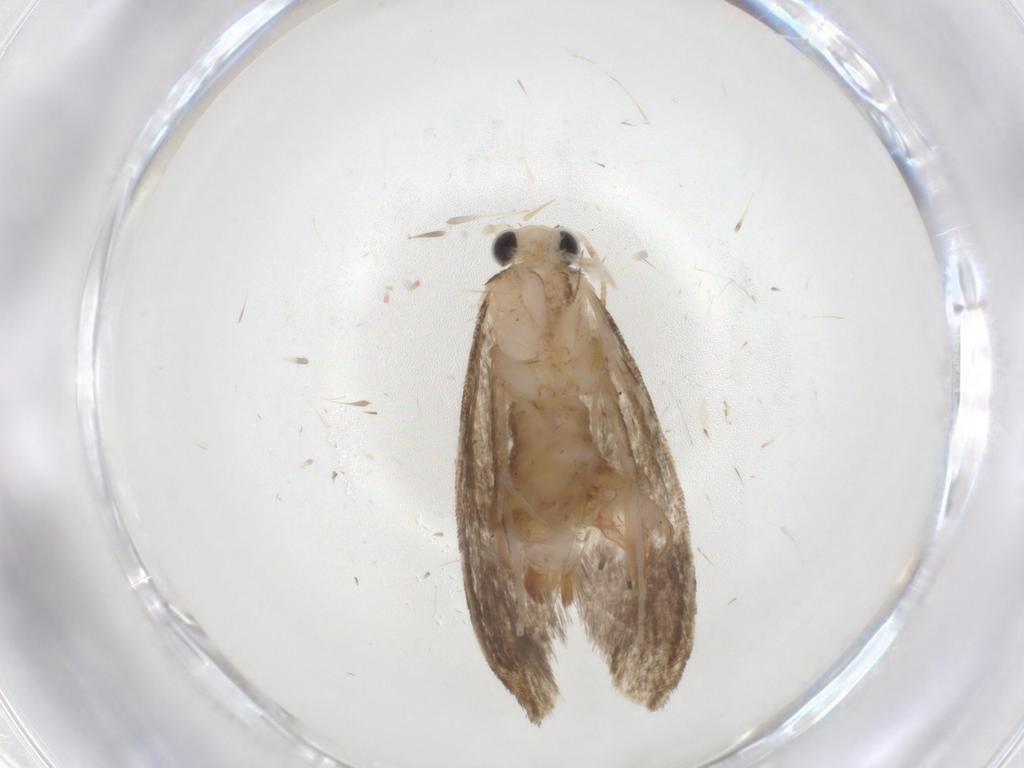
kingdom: Animalia
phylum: Arthropoda
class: Insecta
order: Lepidoptera
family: Tineidae
